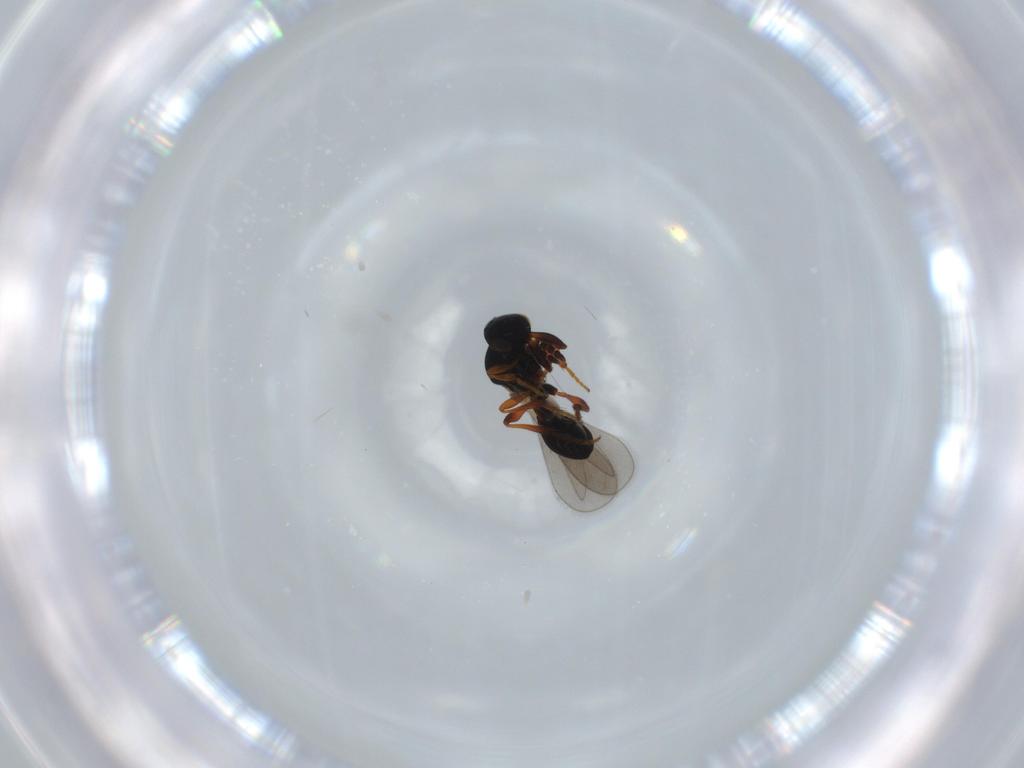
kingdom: Animalia
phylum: Arthropoda
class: Insecta
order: Hymenoptera
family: Platygastridae
